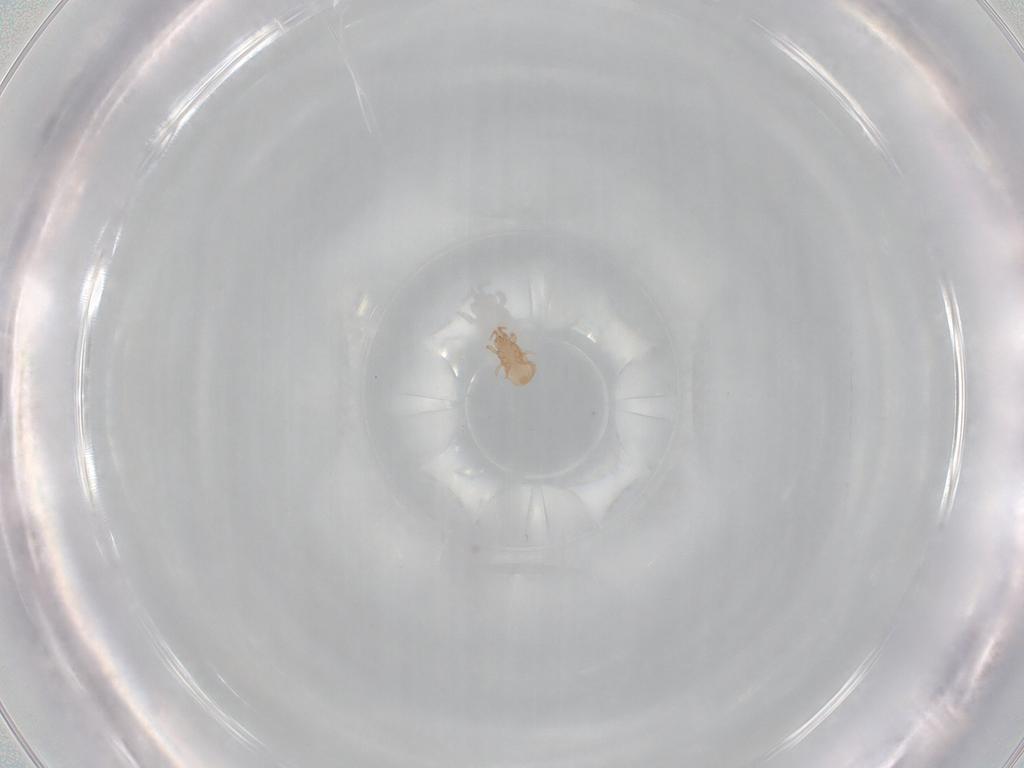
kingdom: Animalia
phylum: Arthropoda
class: Arachnida
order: Mesostigmata
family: Ascidae
